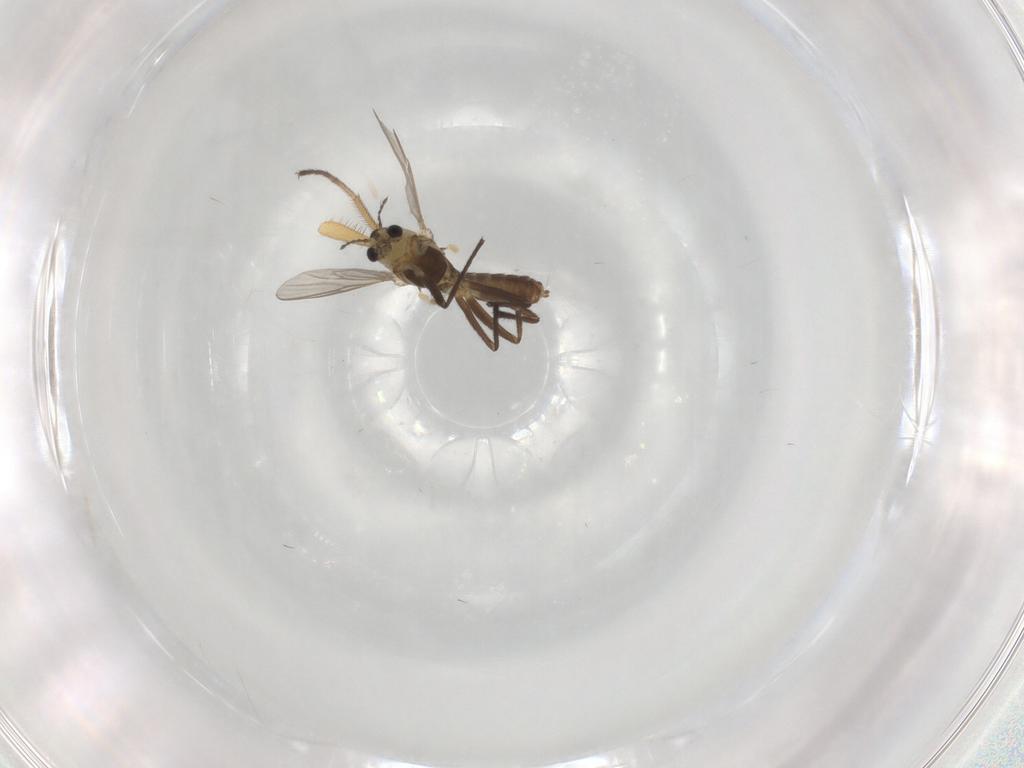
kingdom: Animalia
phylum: Arthropoda
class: Insecta
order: Diptera
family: Chironomidae
